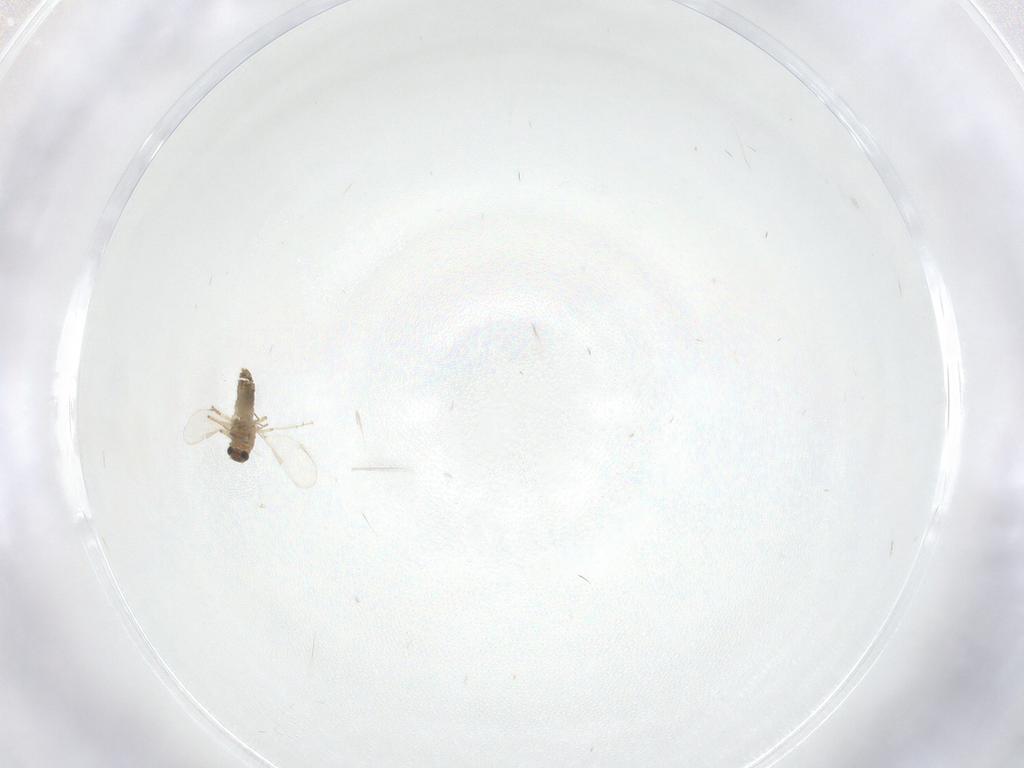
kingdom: Animalia
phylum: Arthropoda
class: Insecta
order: Diptera
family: Chironomidae
